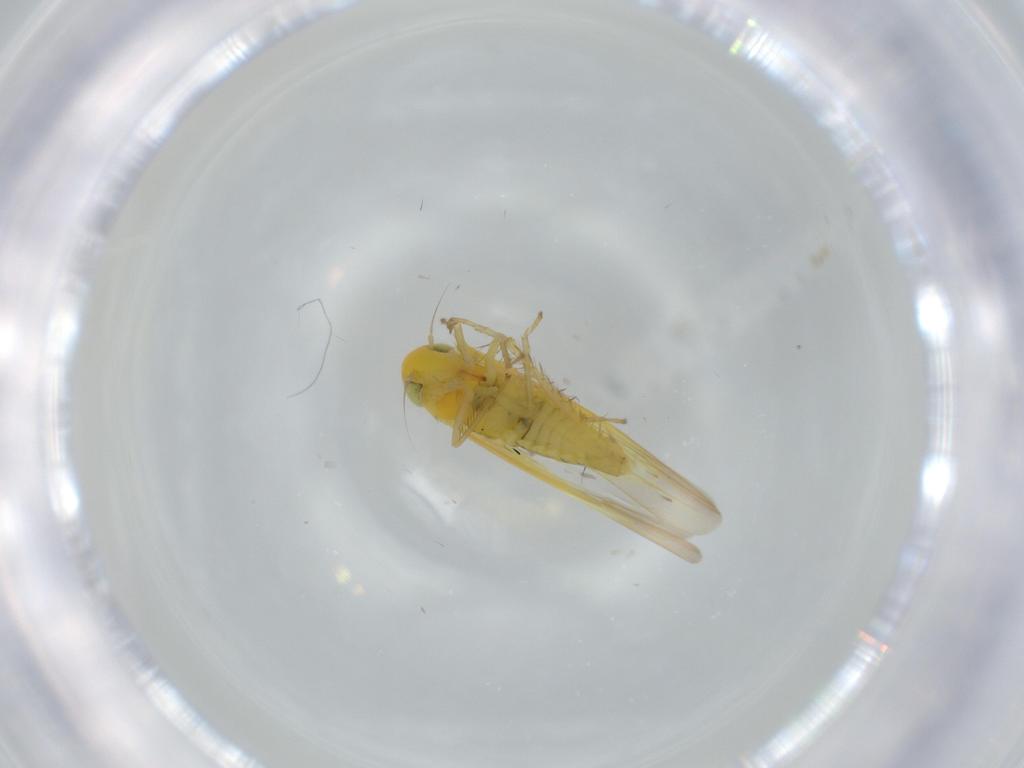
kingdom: Animalia
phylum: Arthropoda
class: Insecta
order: Hemiptera
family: Cicadellidae
